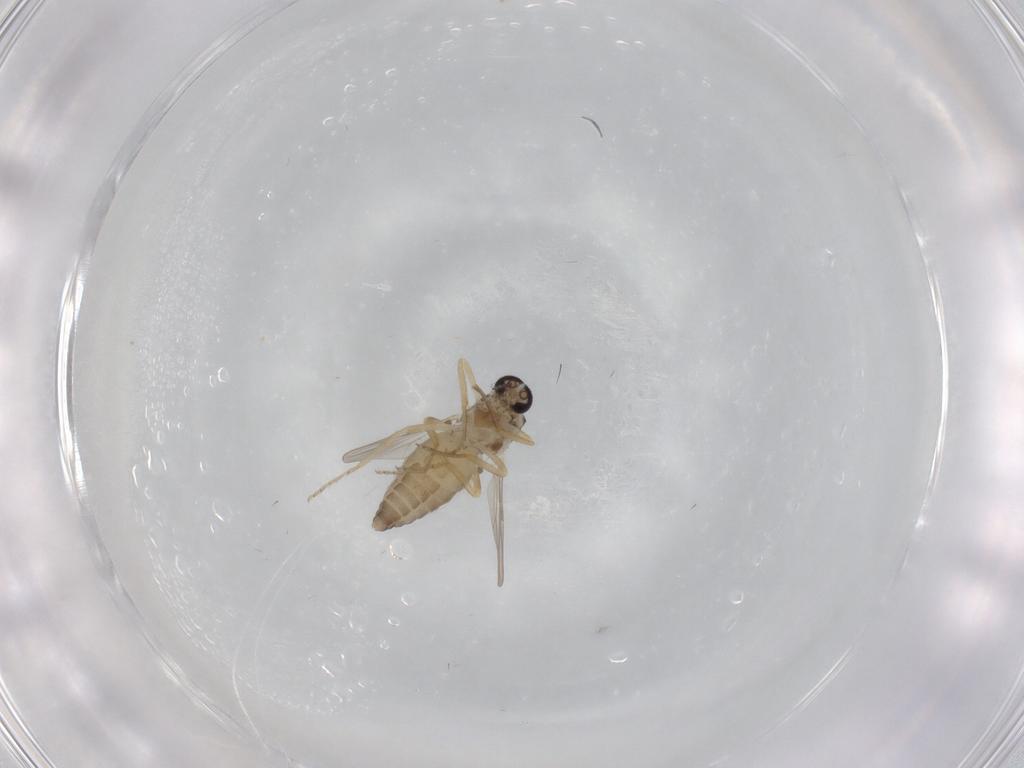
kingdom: Animalia
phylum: Arthropoda
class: Insecta
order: Diptera
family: Ceratopogonidae
